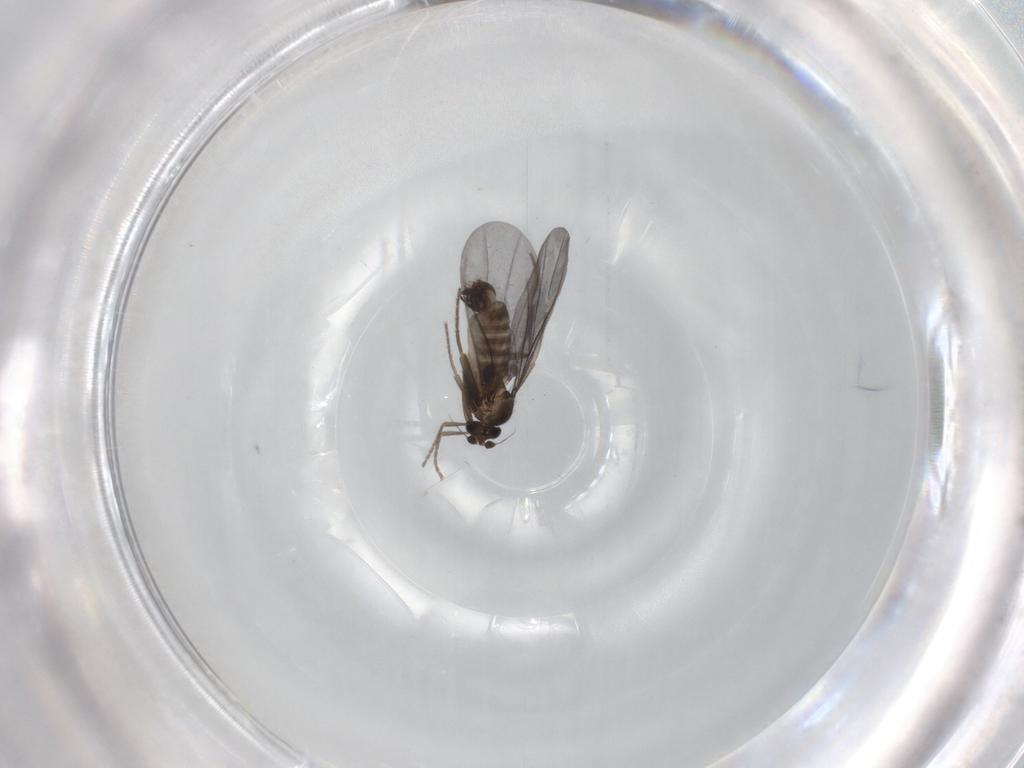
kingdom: Animalia
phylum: Arthropoda
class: Insecta
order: Diptera
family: Phoridae
